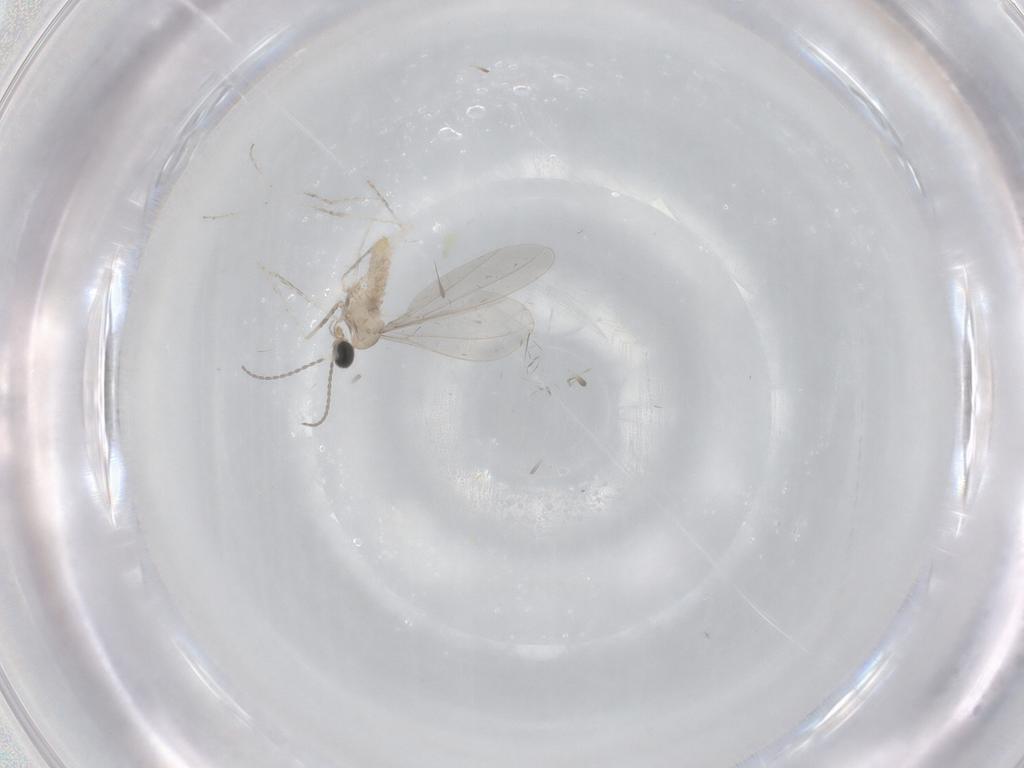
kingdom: Animalia
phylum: Arthropoda
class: Insecta
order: Diptera
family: Cecidomyiidae
